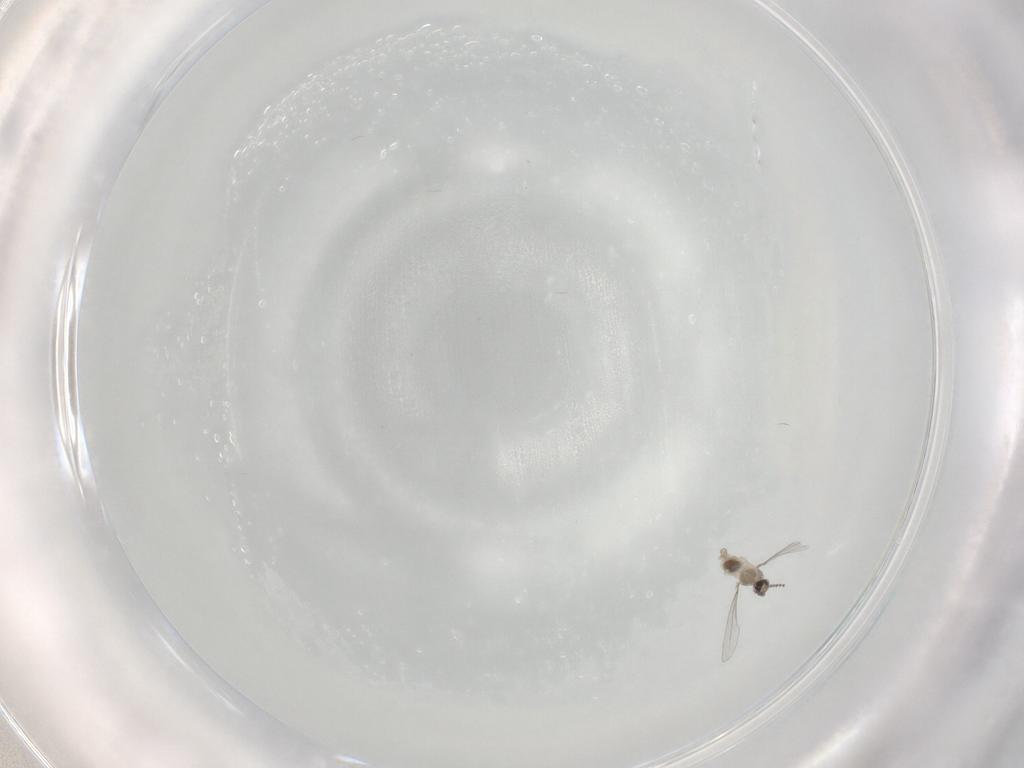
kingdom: Animalia
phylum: Arthropoda
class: Insecta
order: Diptera
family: Cecidomyiidae
